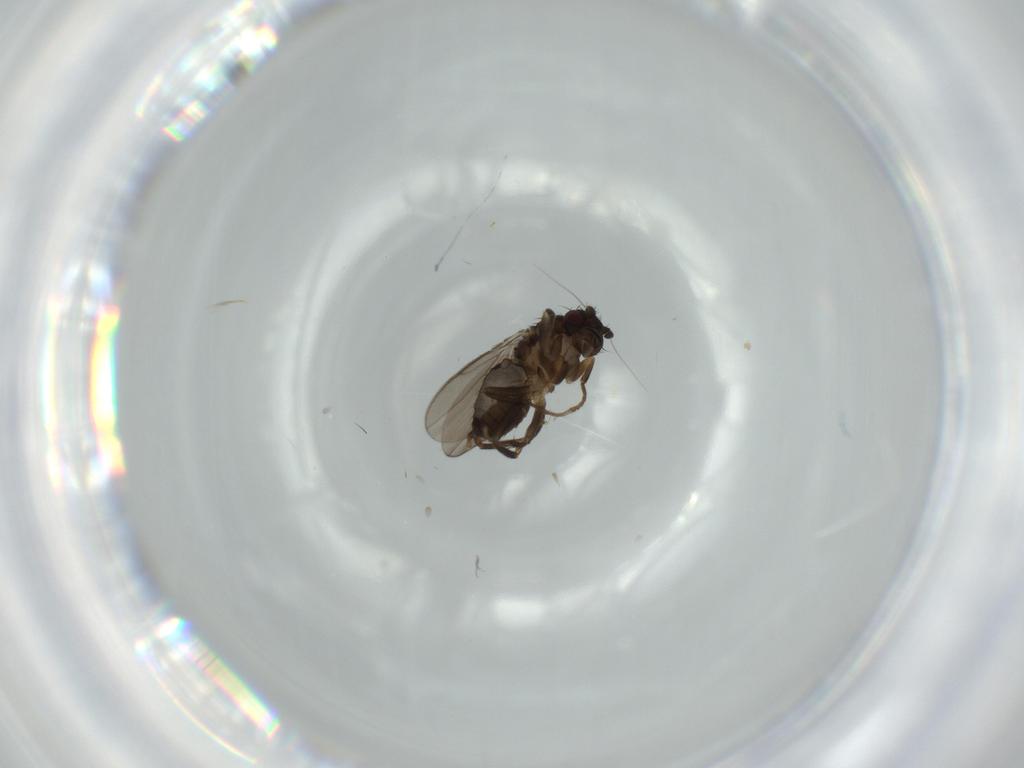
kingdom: Animalia
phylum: Arthropoda
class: Insecta
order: Diptera
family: Sphaeroceridae
